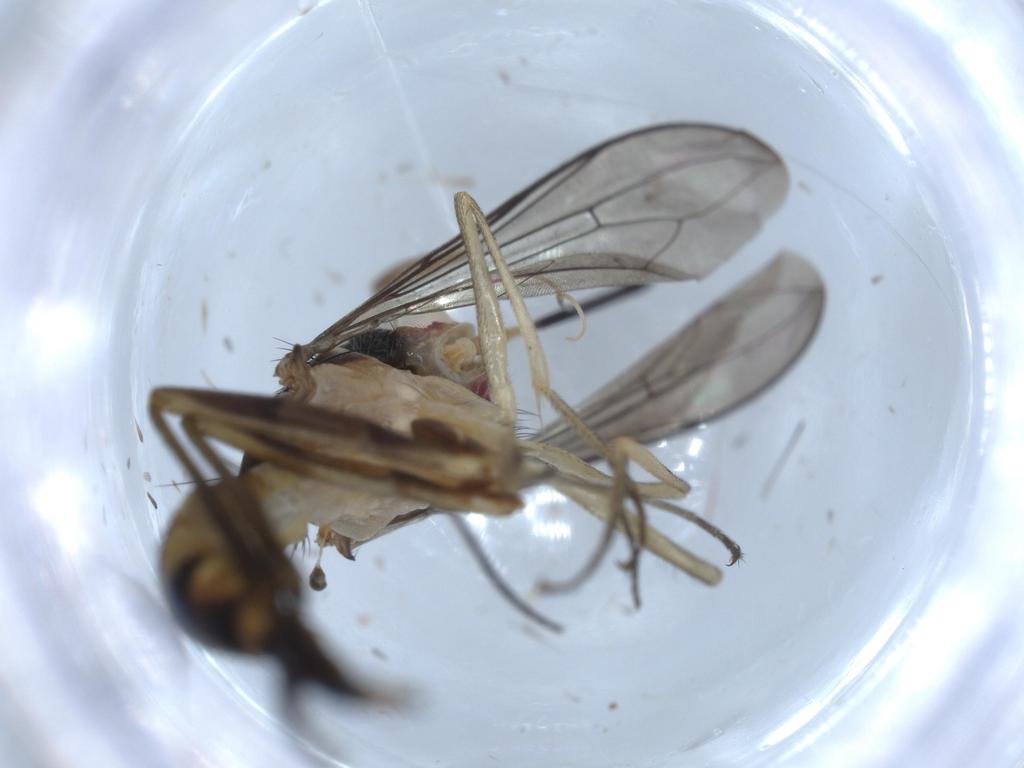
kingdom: Animalia
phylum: Arthropoda
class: Insecta
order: Diptera
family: Conopidae
